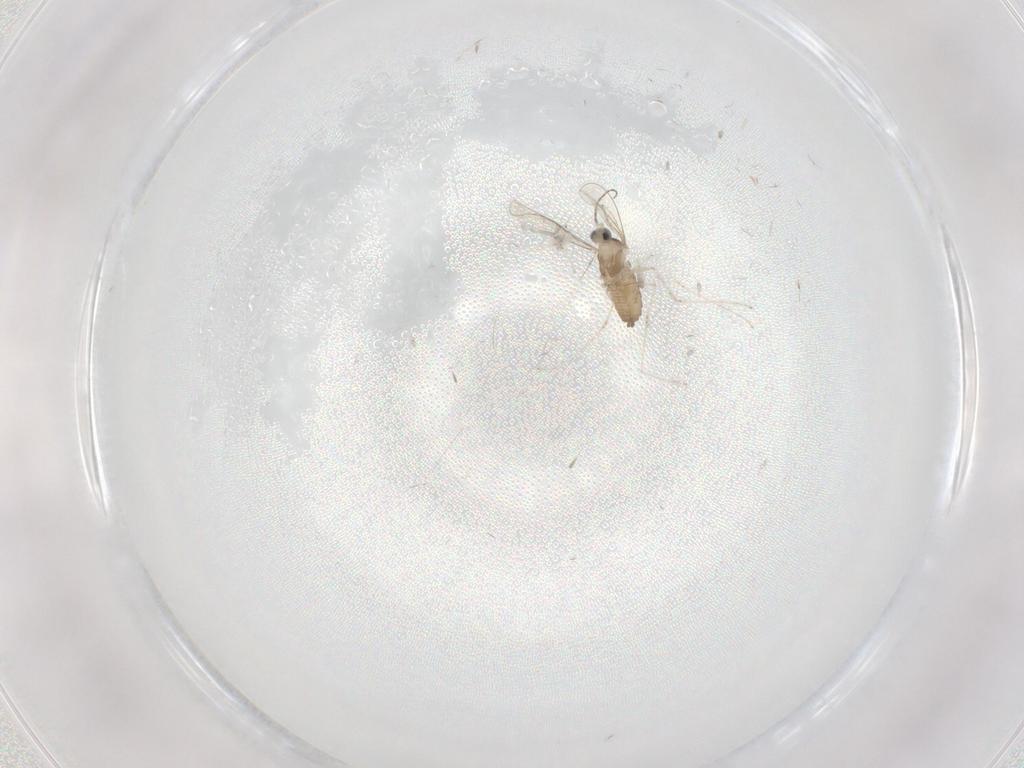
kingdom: Animalia
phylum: Arthropoda
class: Insecta
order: Diptera
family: Cecidomyiidae
